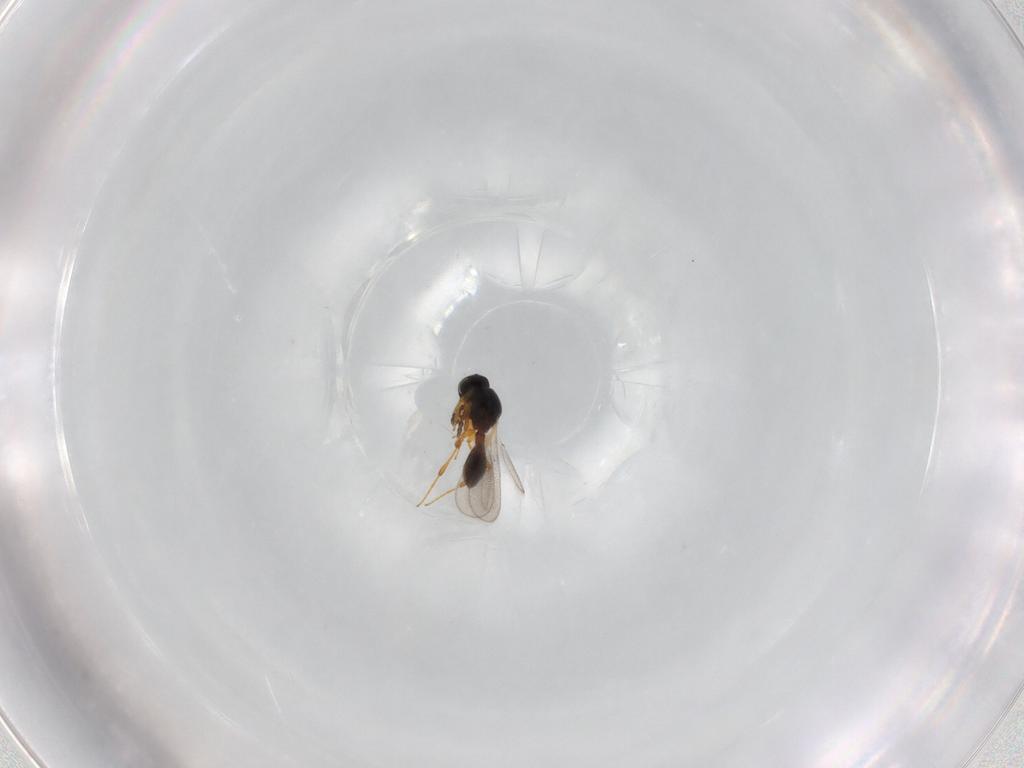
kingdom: Animalia
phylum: Arthropoda
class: Insecta
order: Hymenoptera
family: Platygastridae
